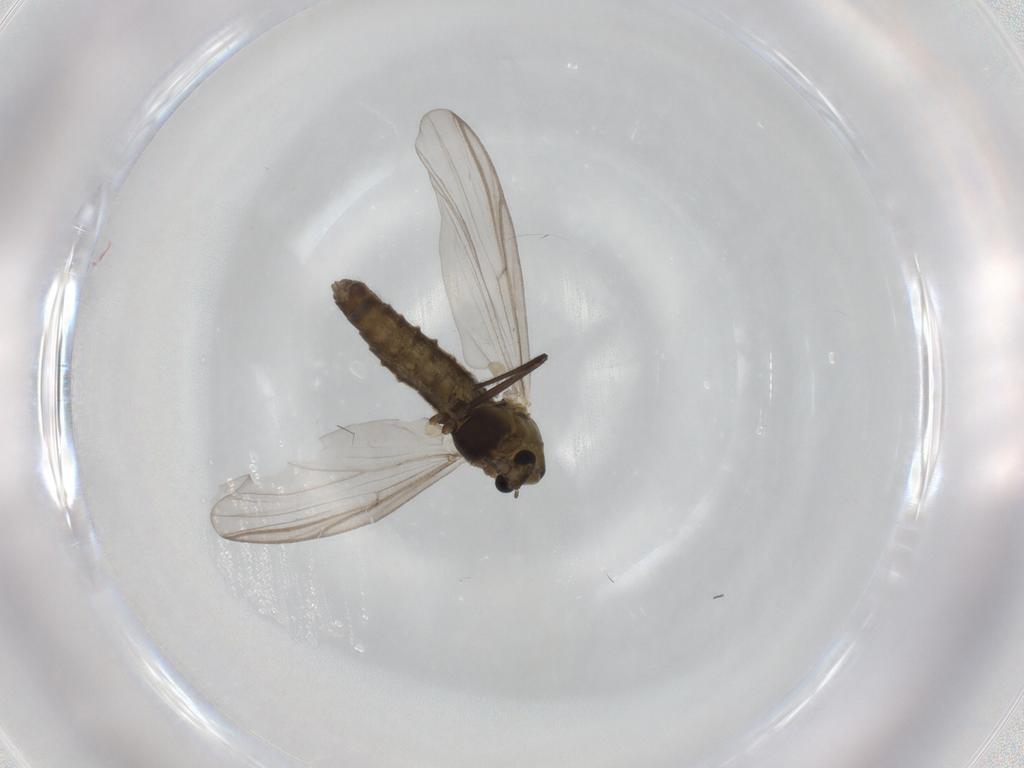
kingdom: Animalia
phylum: Arthropoda
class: Insecta
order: Diptera
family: Chironomidae
